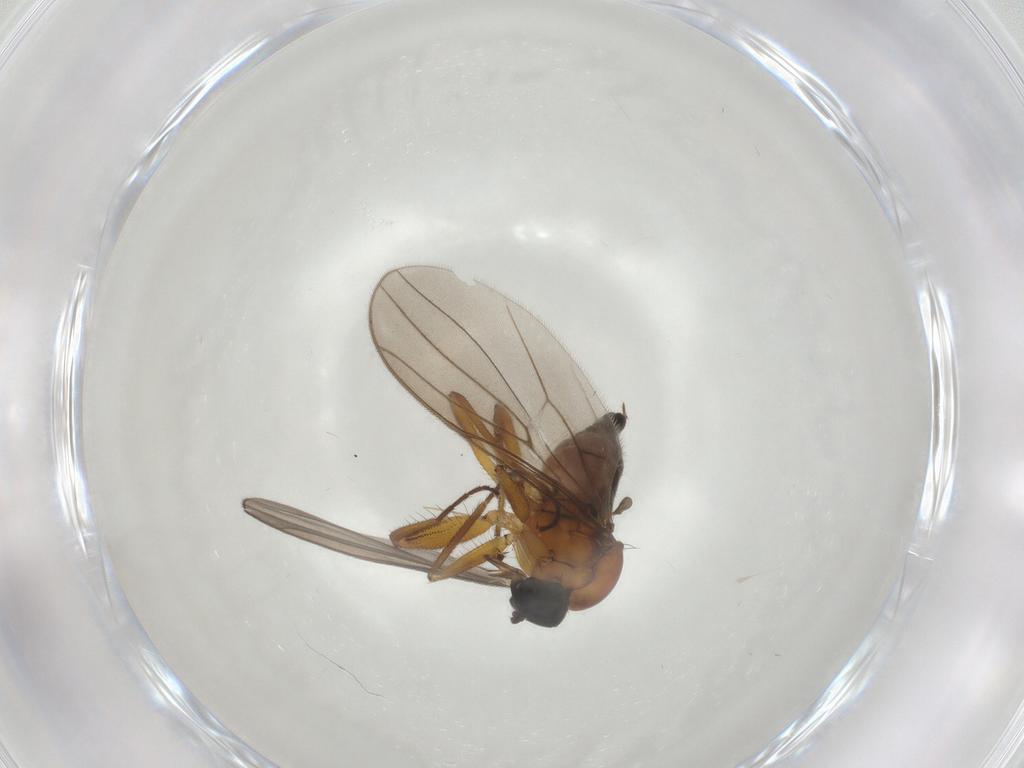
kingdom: Animalia
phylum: Arthropoda
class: Insecta
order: Diptera
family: Hybotidae
